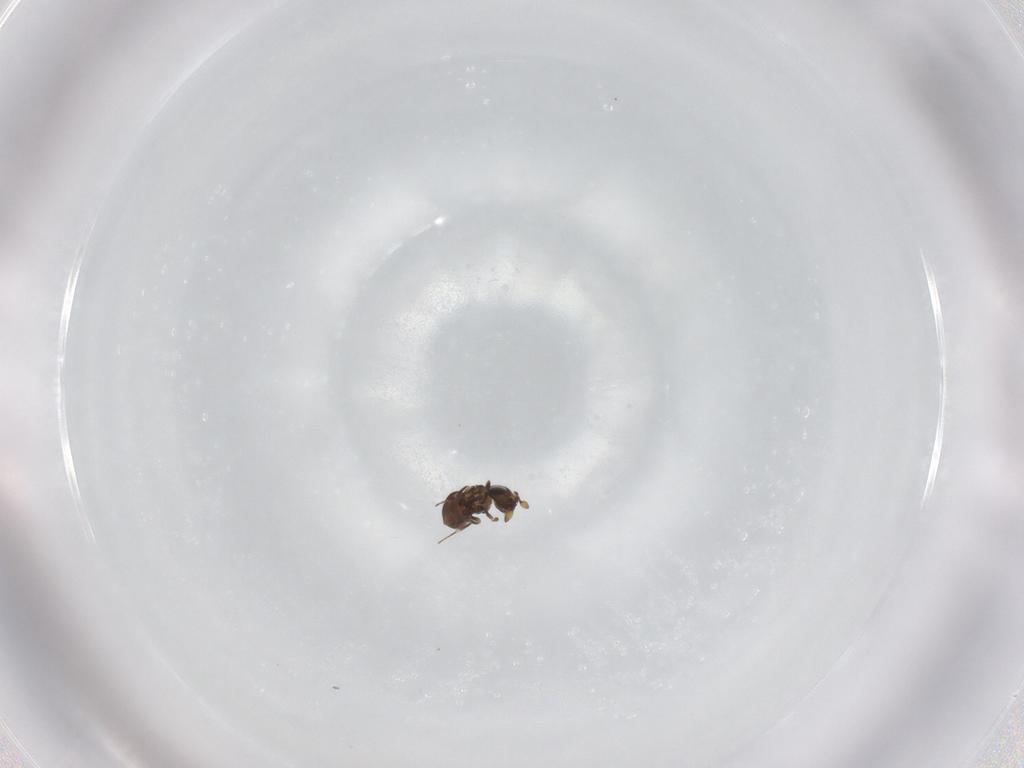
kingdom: Animalia
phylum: Arthropoda
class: Insecta
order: Hymenoptera
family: Scelionidae
